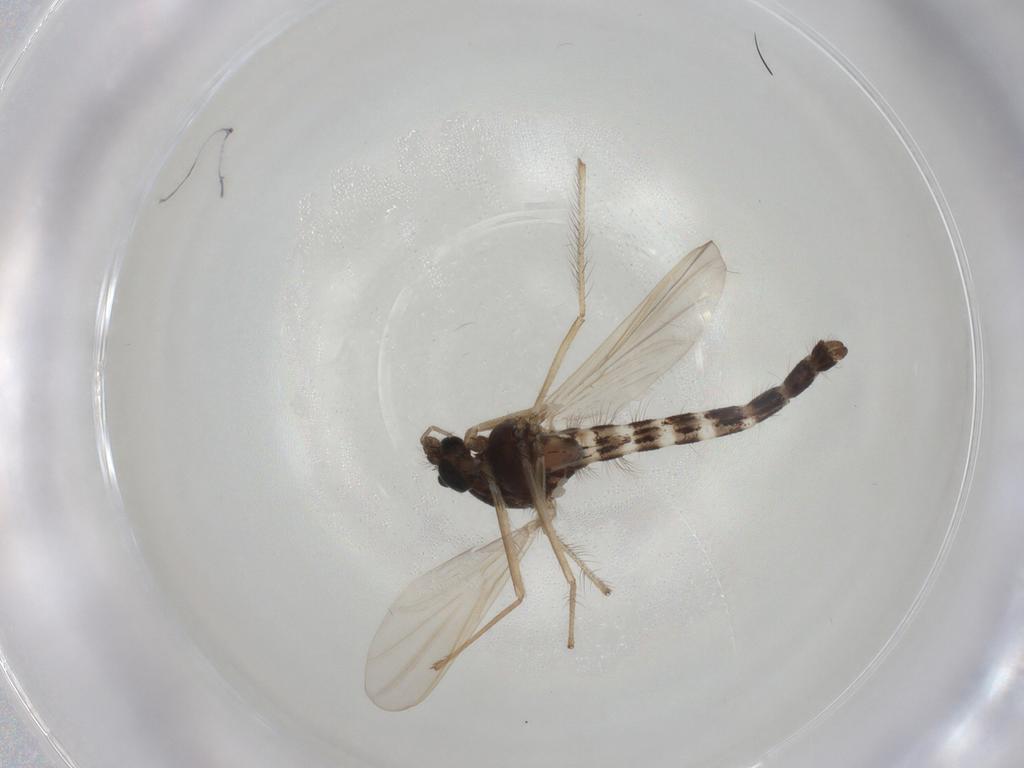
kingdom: Animalia
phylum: Arthropoda
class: Insecta
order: Diptera
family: Chironomidae
